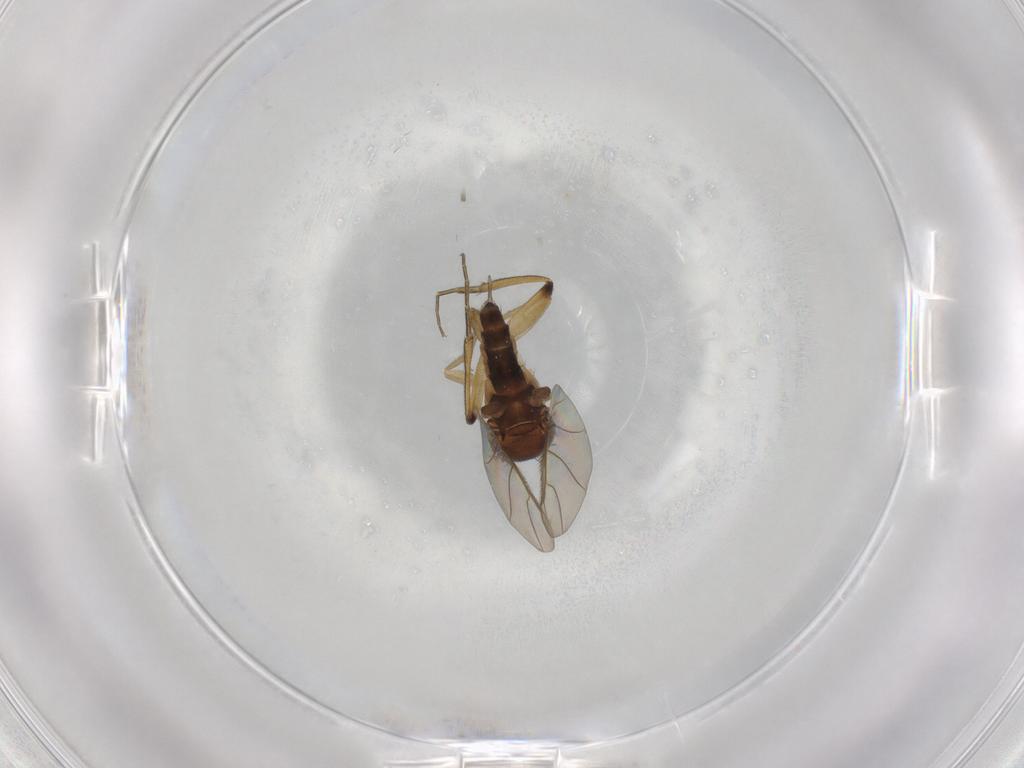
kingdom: Animalia
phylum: Arthropoda
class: Insecta
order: Diptera
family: Phoridae
